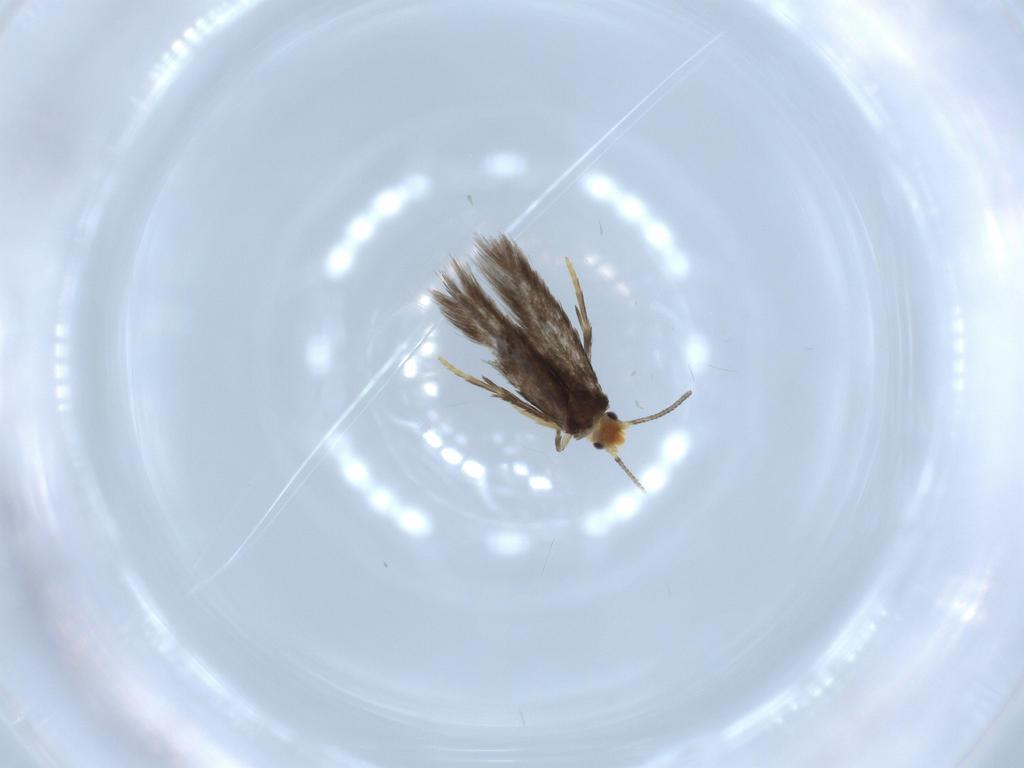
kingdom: Animalia
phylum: Arthropoda
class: Insecta
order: Lepidoptera
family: Nepticulidae
